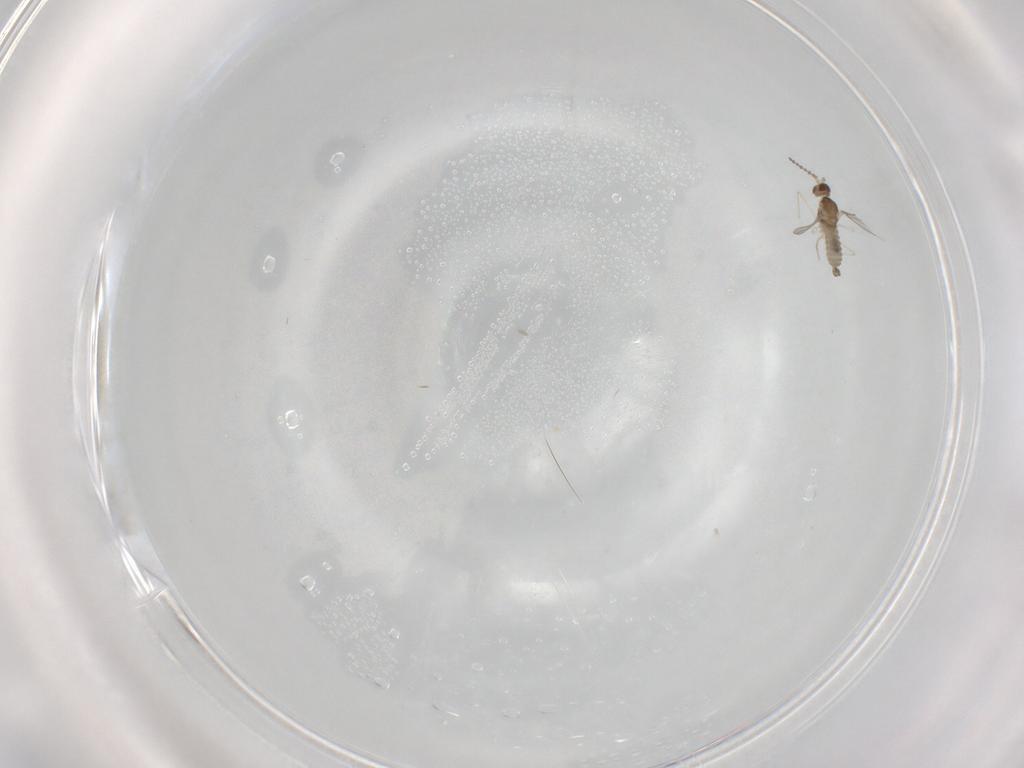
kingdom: Animalia
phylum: Arthropoda
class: Insecta
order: Diptera
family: Cecidomyiidae
